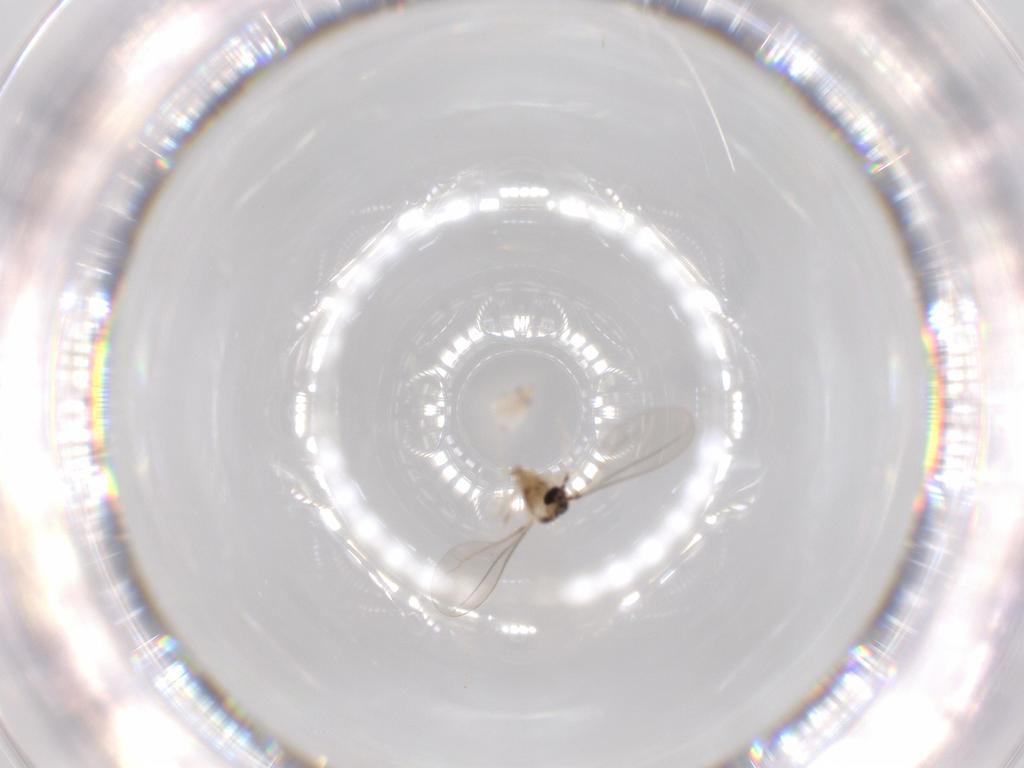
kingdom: Animalia
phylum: Arthropoda
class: Insecta
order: Diptera
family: Cecidomyiidae
